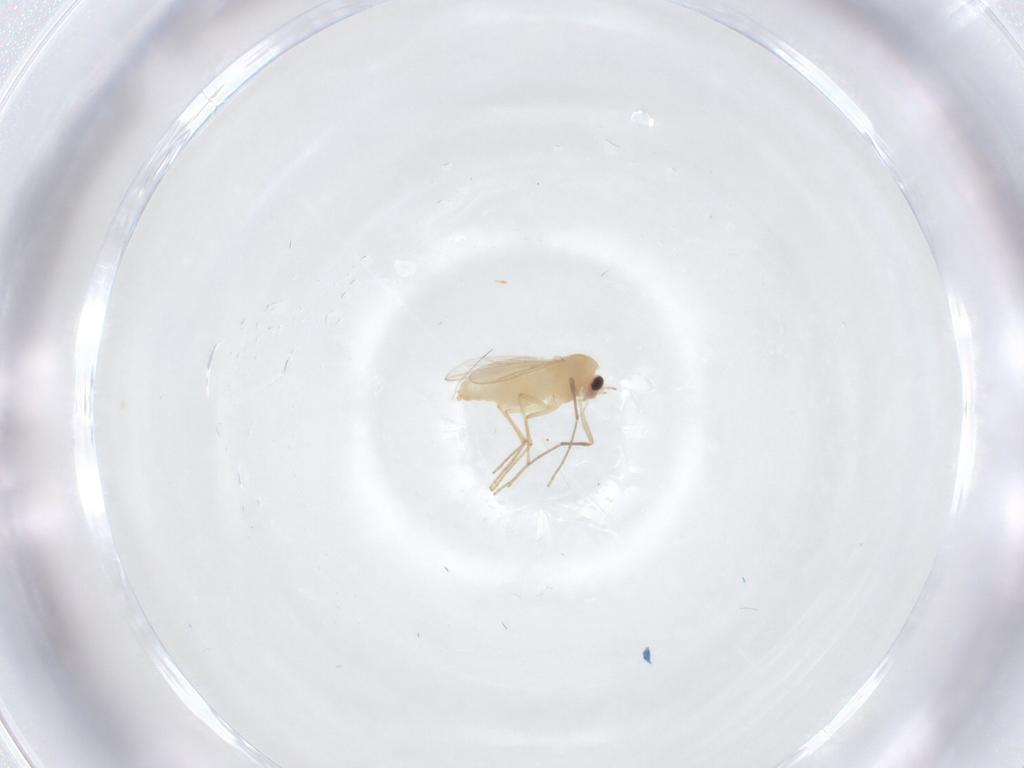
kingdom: Animalia
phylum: Arthropoda
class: Insecta
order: Diptera
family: Chironomidae
